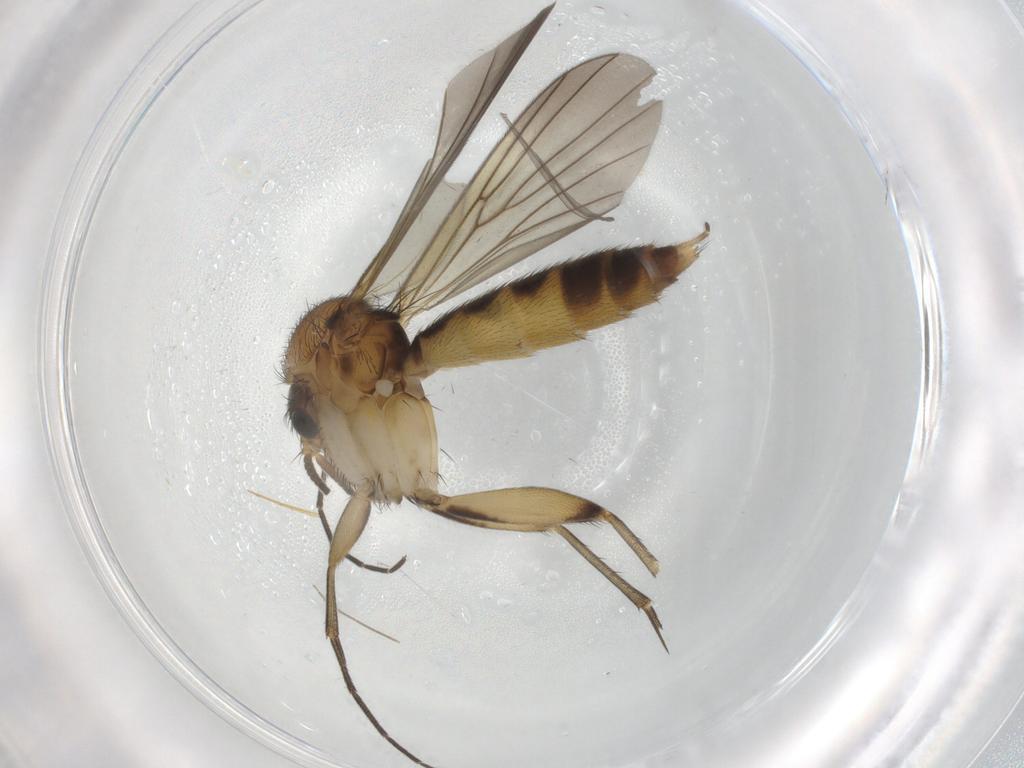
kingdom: Animalia
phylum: Arthropoda
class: Insecta
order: Diptera
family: Mycetophilidae
